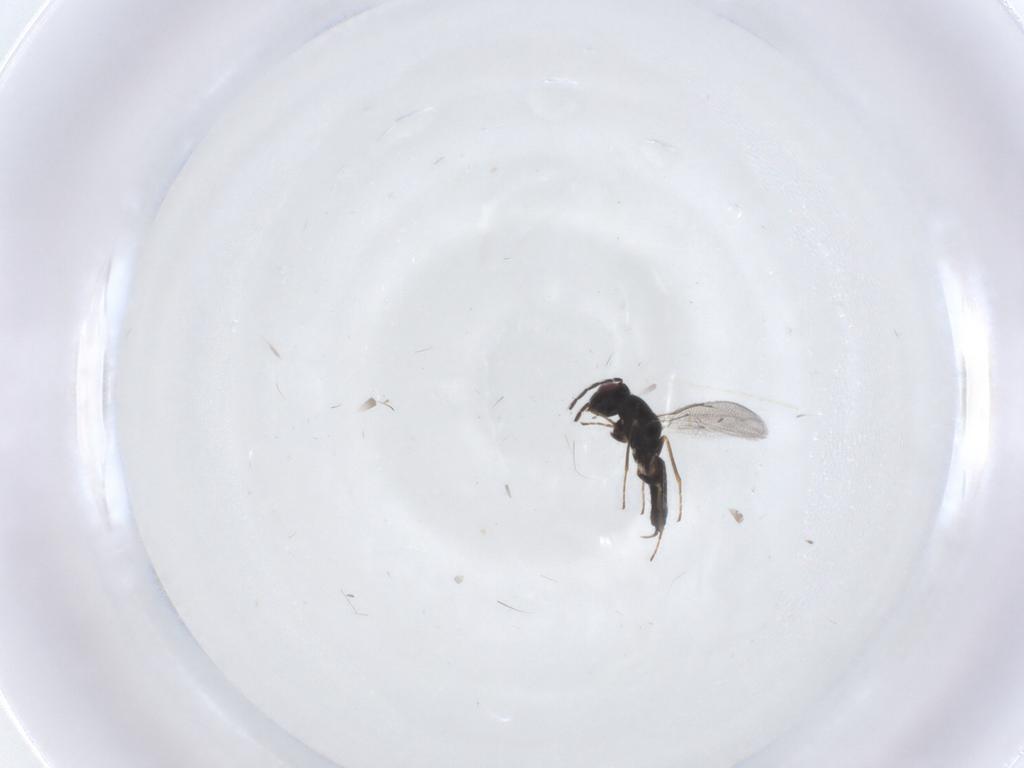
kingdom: Animalia
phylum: Arthropoda
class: Insecta
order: Hymenoptera
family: Eulophidae
